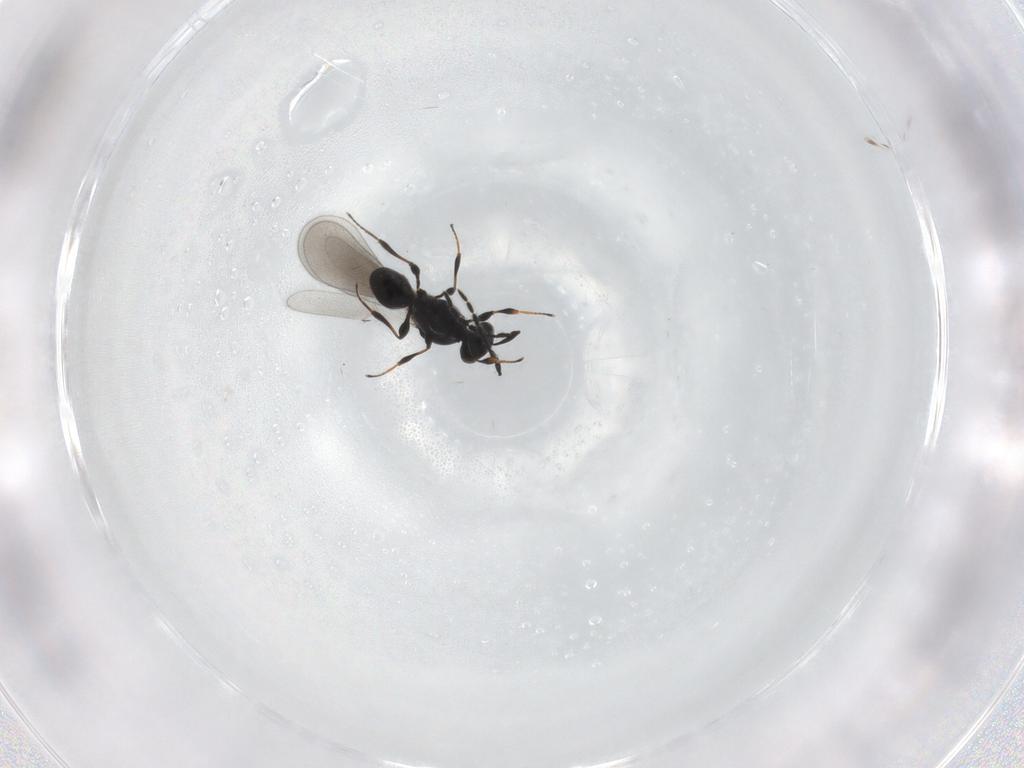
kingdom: Animalia
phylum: Arthropoda
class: Insecta
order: Hymenoptera
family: Platygastridae
